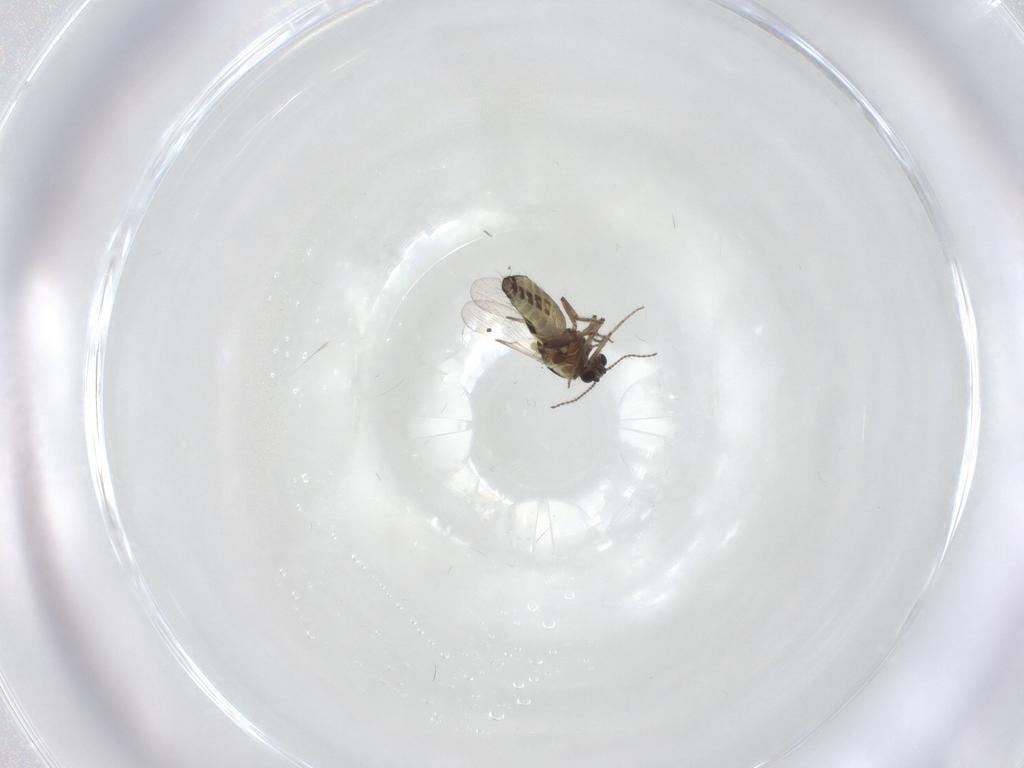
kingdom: Animalia
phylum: Arthropoda
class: Insecta
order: Diptera
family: Ceratopogonidae
